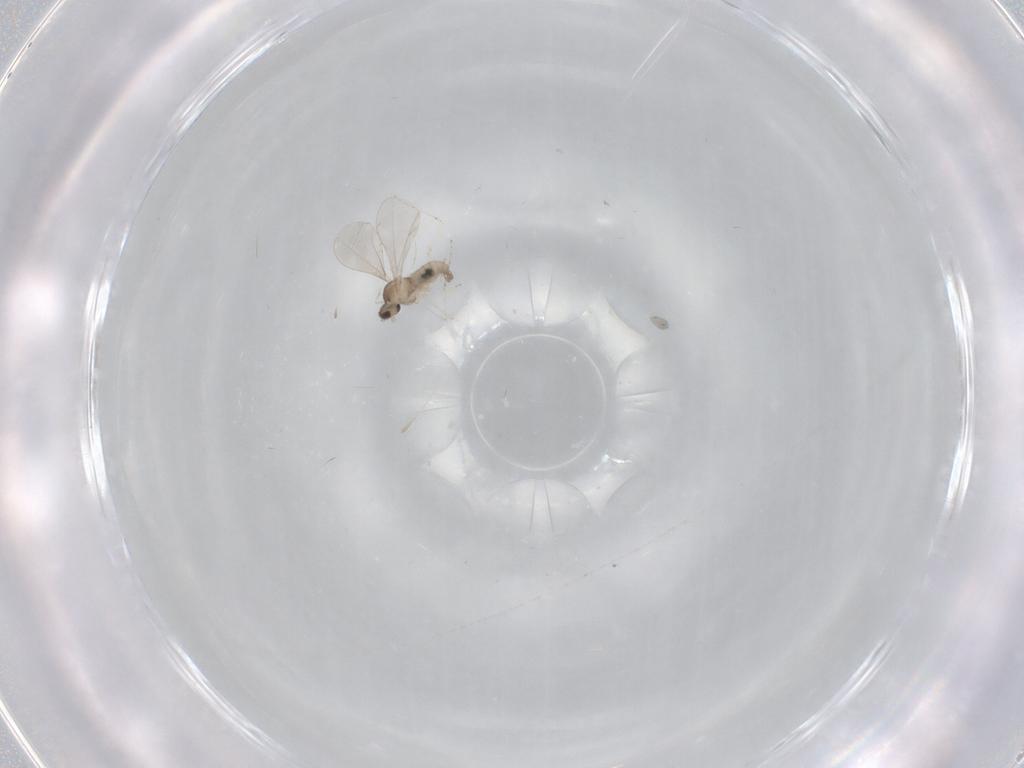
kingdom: Animalia
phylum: Arthropoda
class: Insecta
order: Diptera
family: Cecidomyiidae
